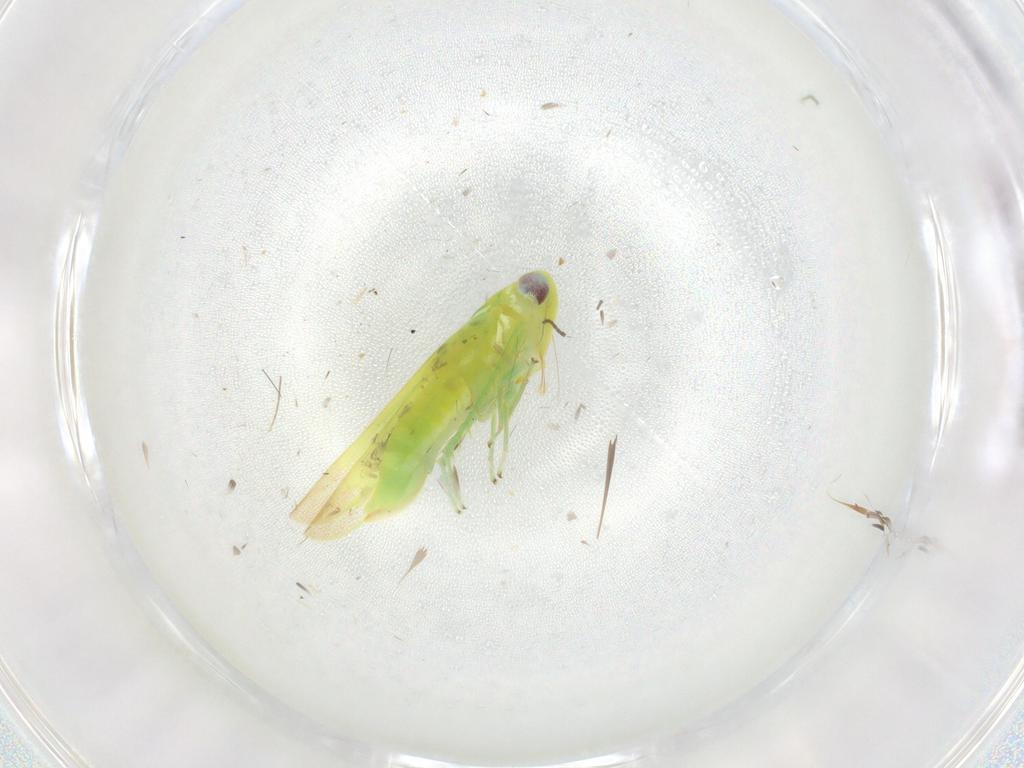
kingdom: Animalia
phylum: Arthropoda
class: Insecta
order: Hemiptera
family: Cicadellidae
